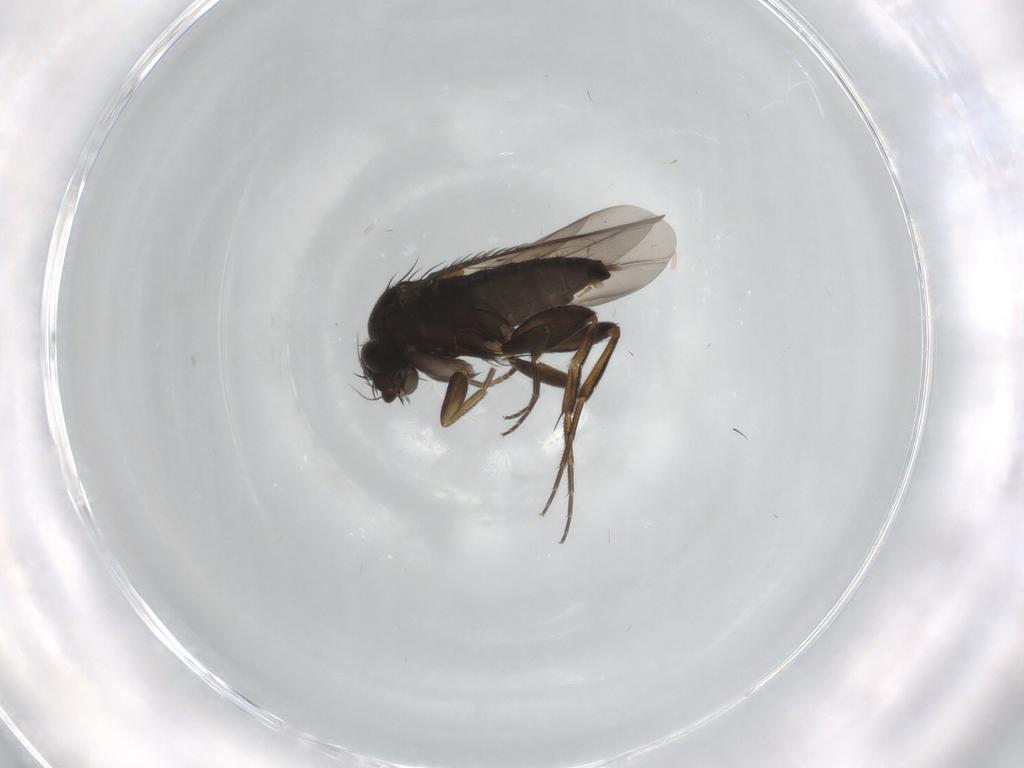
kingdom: Animalia
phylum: Arthropoda
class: Insecta
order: Diptera
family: Phoridae
